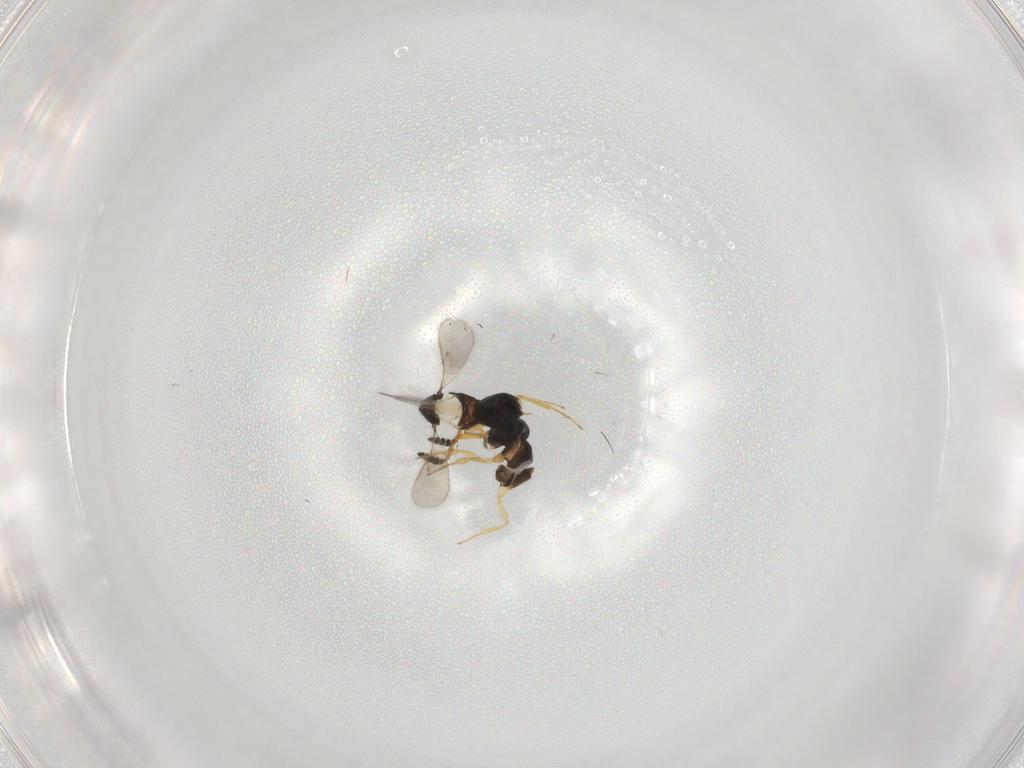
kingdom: Animalia
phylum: Arthropoda
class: Insecta
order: Hymenoptera
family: Scelionidae
